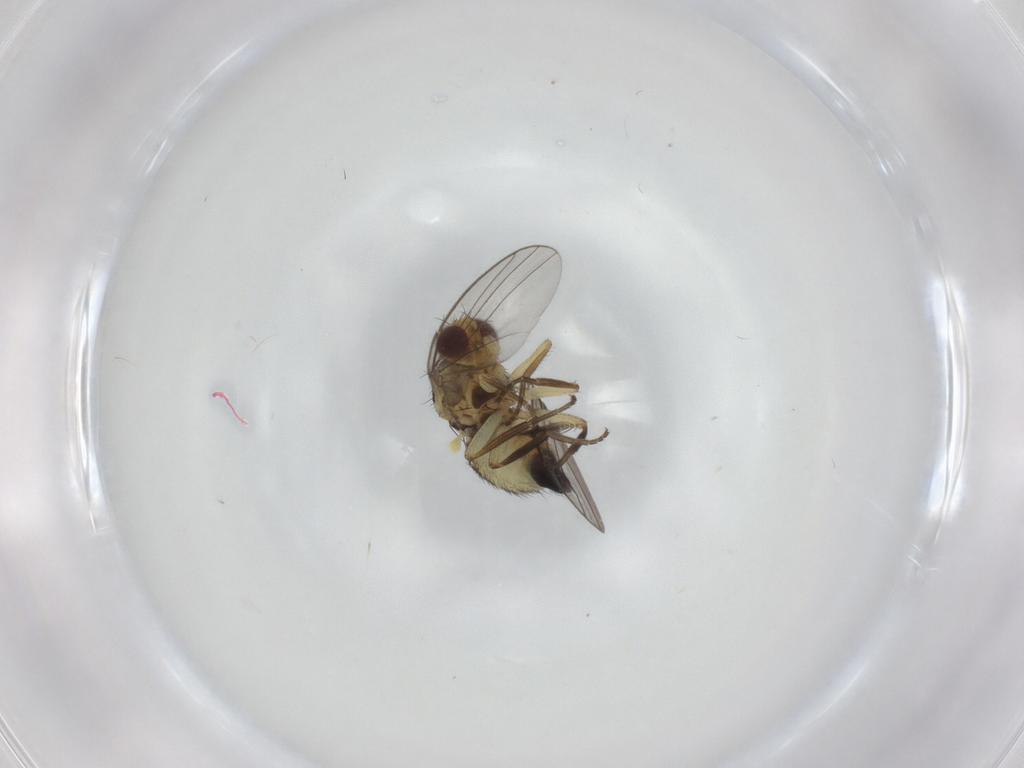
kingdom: Animalia
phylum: Arthropoda
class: Insecta
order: Diptera
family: Agromyzidae
